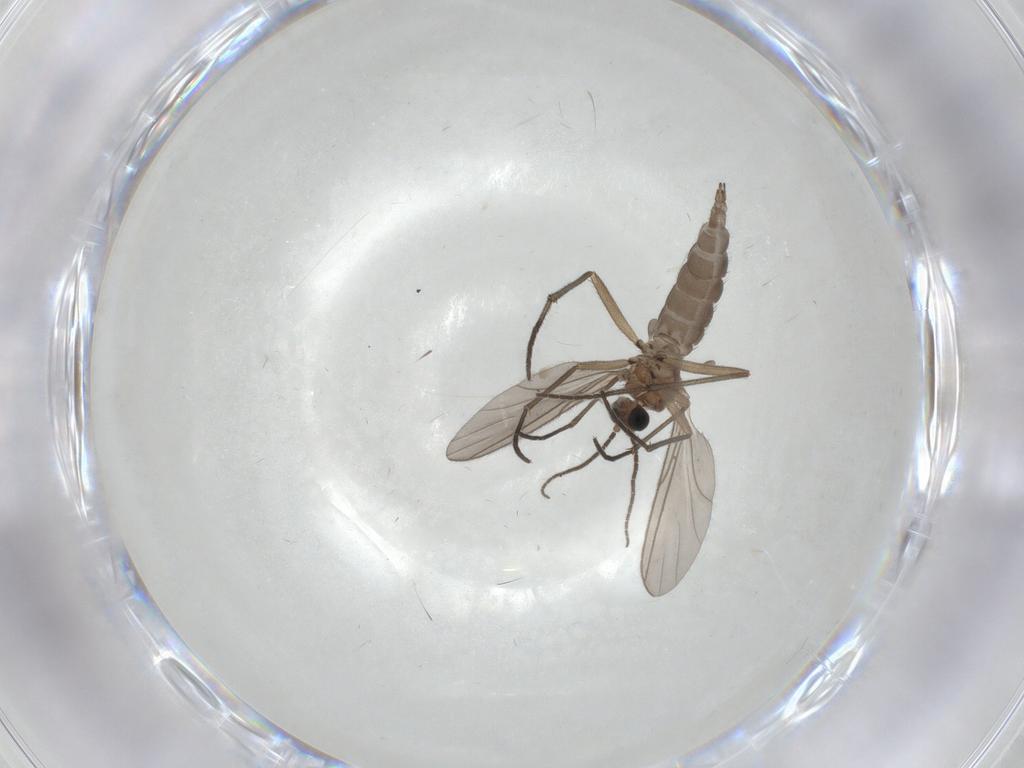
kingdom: Animalia
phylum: Arthropoda
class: Insecta
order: Diptera
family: Sciaridae
